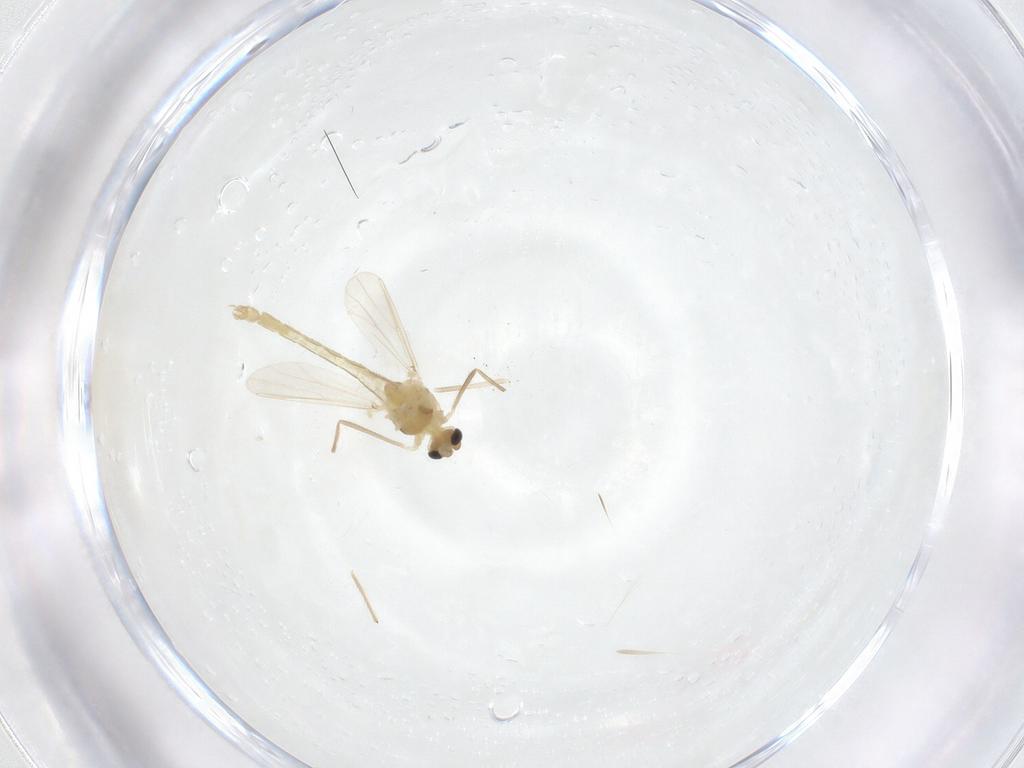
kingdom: Animalia
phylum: Arthropoda
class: Insecta
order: Diptera
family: Chironomidae
